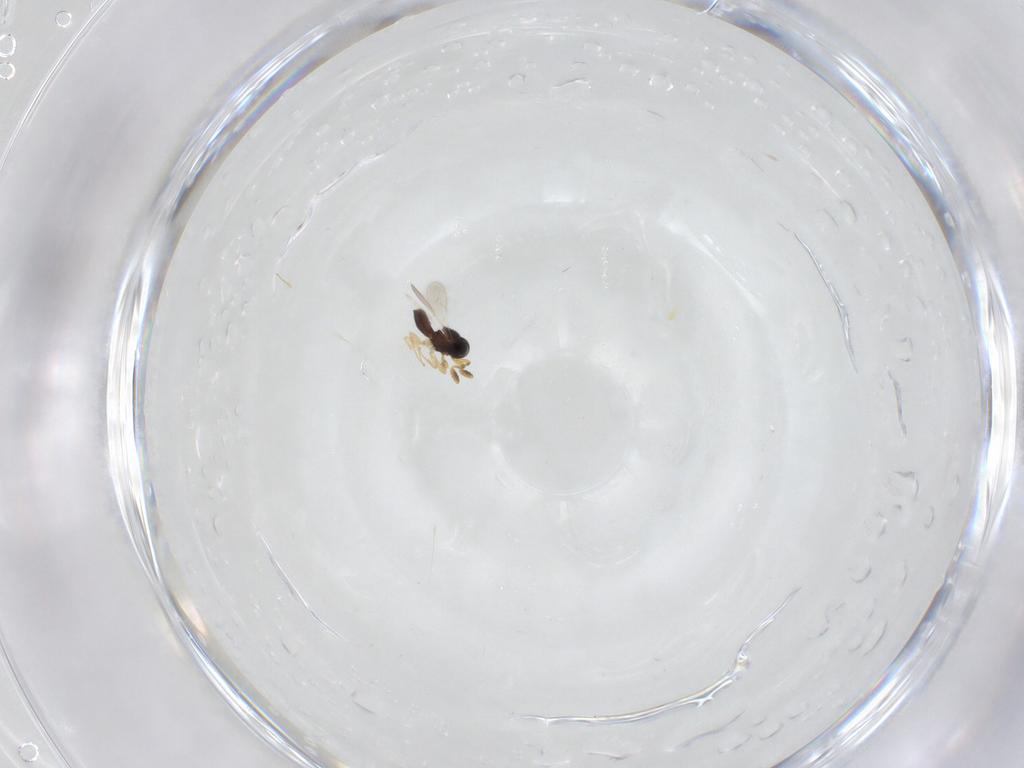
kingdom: Animalia
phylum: Arthropoda
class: Insecta
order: Hymenoptera
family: Scelionidae
